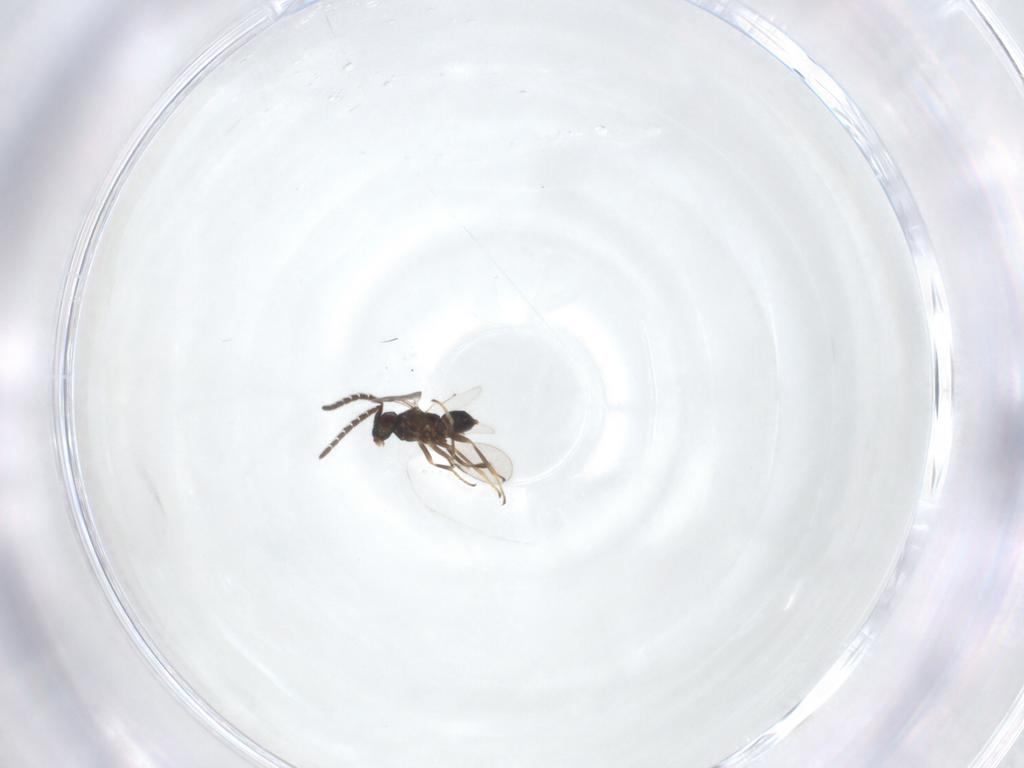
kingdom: Animalia
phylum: Arthropoda
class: Insecta
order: Hymenoptera
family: Encyrtidae
